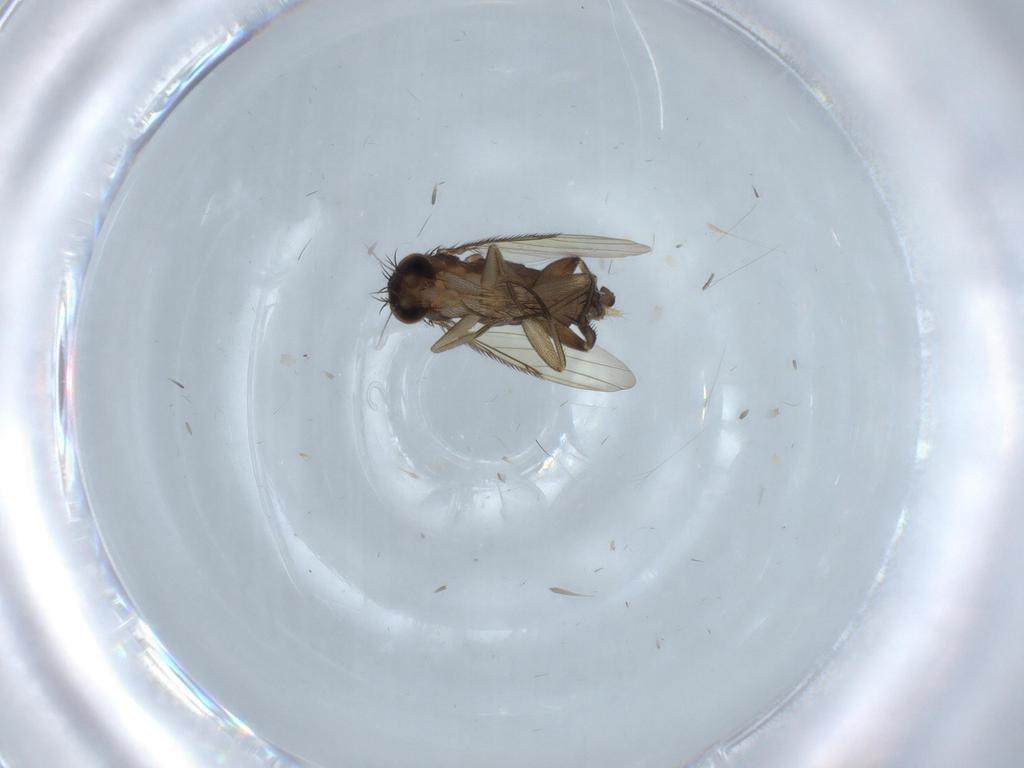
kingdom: Animalia
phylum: Arthropoda
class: Insecta
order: Diptera
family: Phoridae
